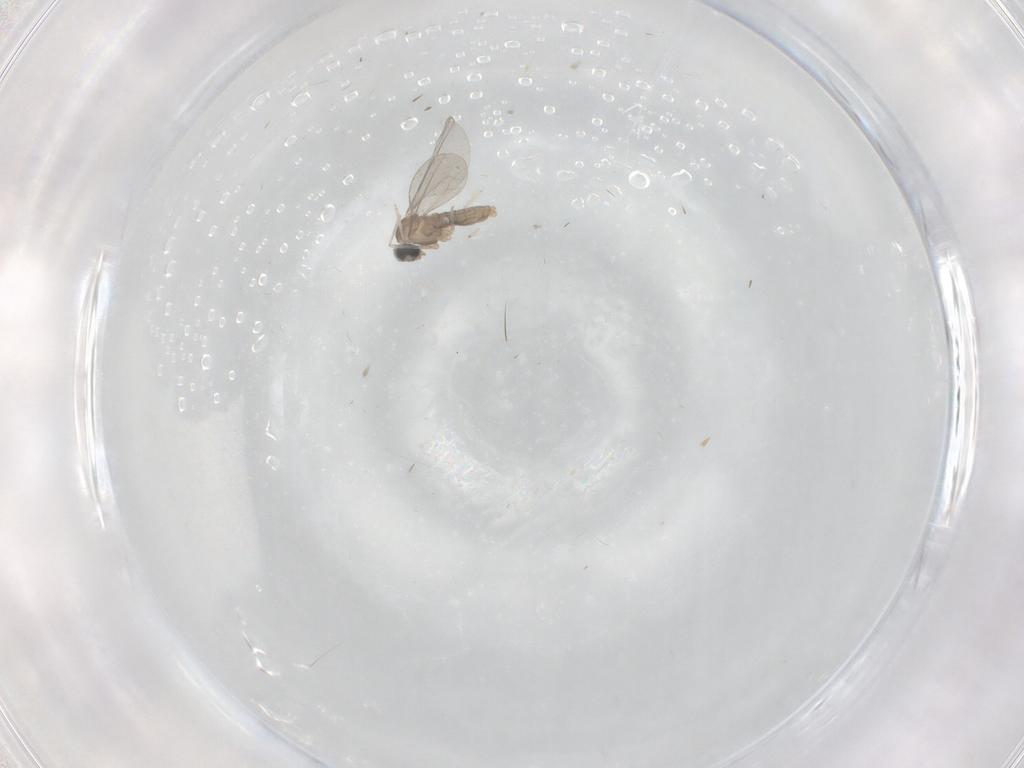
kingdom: Animalia
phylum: Arthropoda
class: Insecta
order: Diptera
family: Cecidomyiidae
